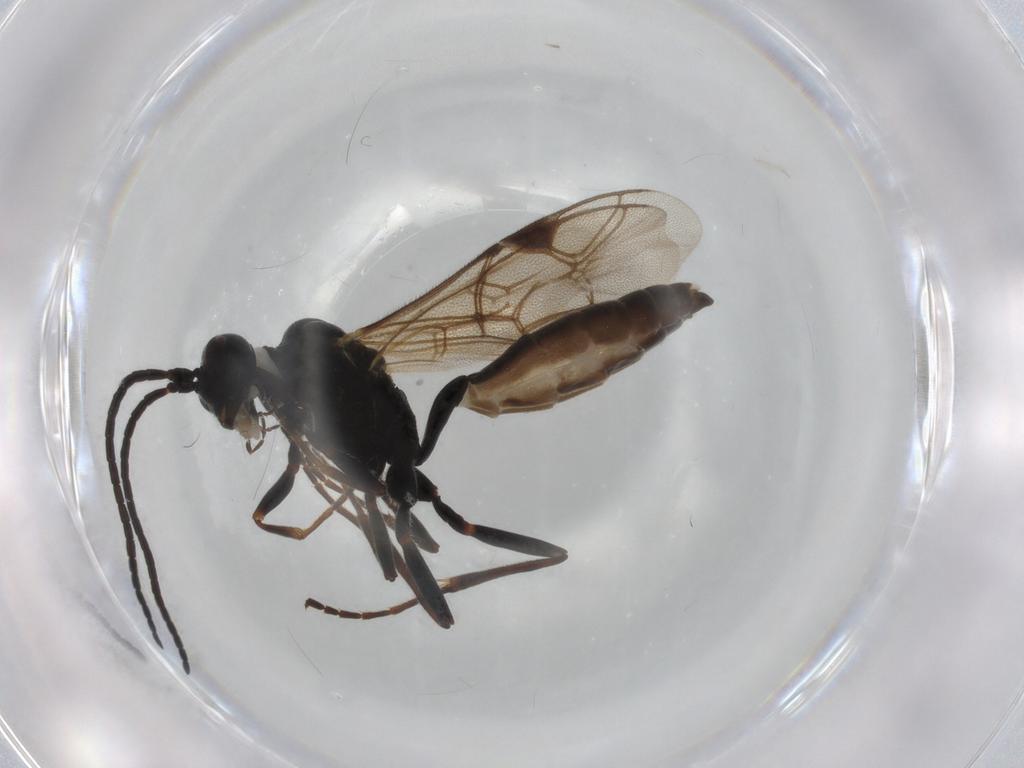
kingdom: Animalia
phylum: Arthropoda
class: Insecta
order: Hymenoptera
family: Ichneumonidae
